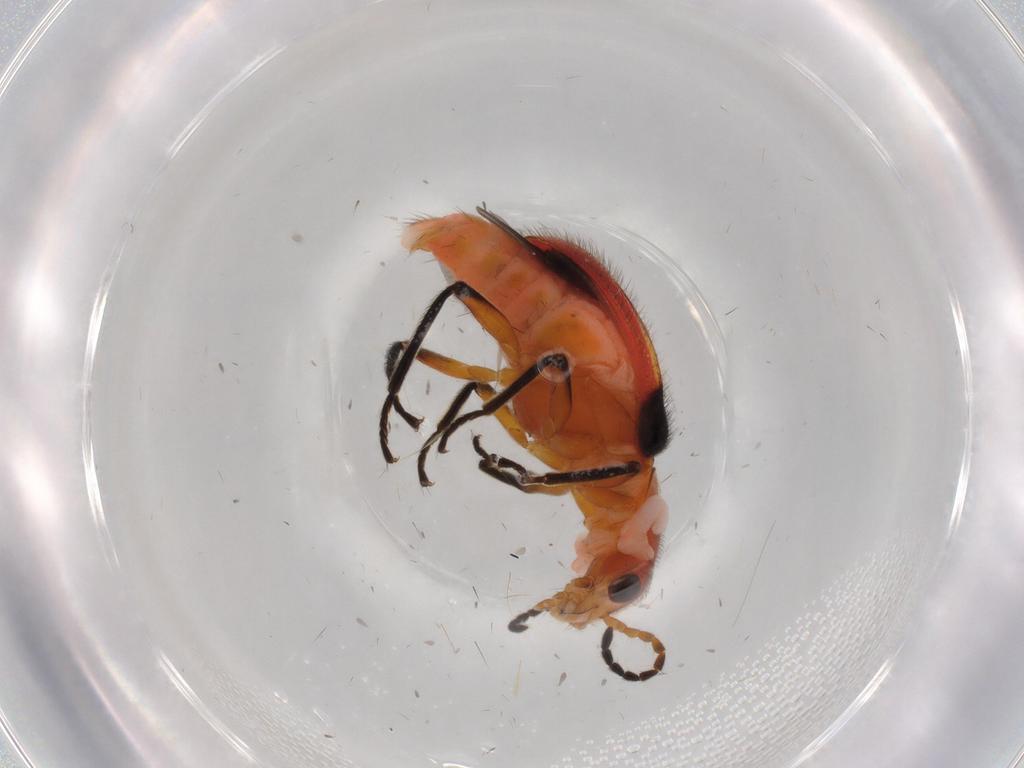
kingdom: Animalia
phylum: Arthropoda
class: Insecta
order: Coleoptera
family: Melyridae
